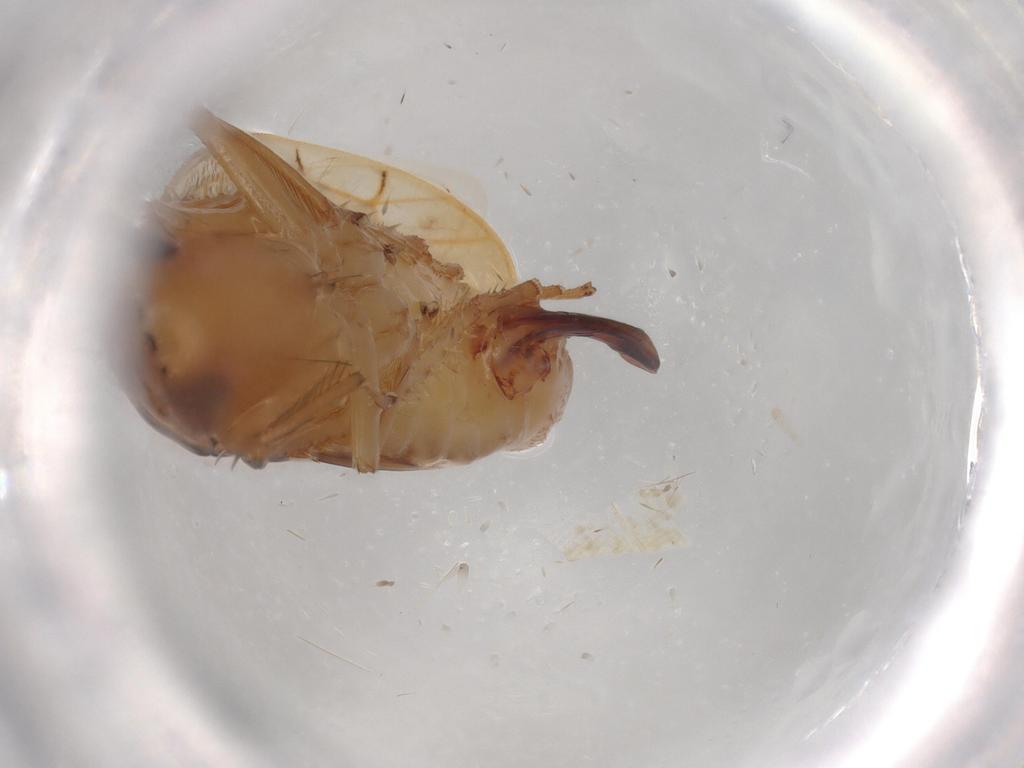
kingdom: Animalia
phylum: Arthropoda
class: Insecta
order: Hemiptera
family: Cicadellidae
